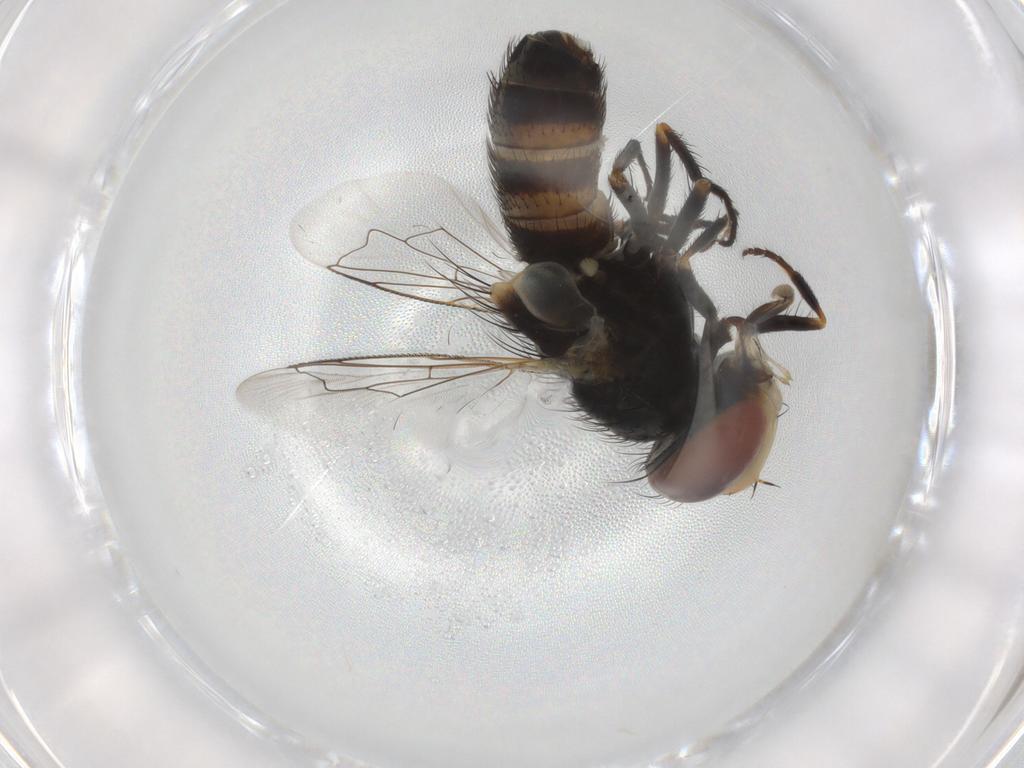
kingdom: Animalia
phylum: Arthropoda
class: Insecta
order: Diptera
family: Sarcophagidae
